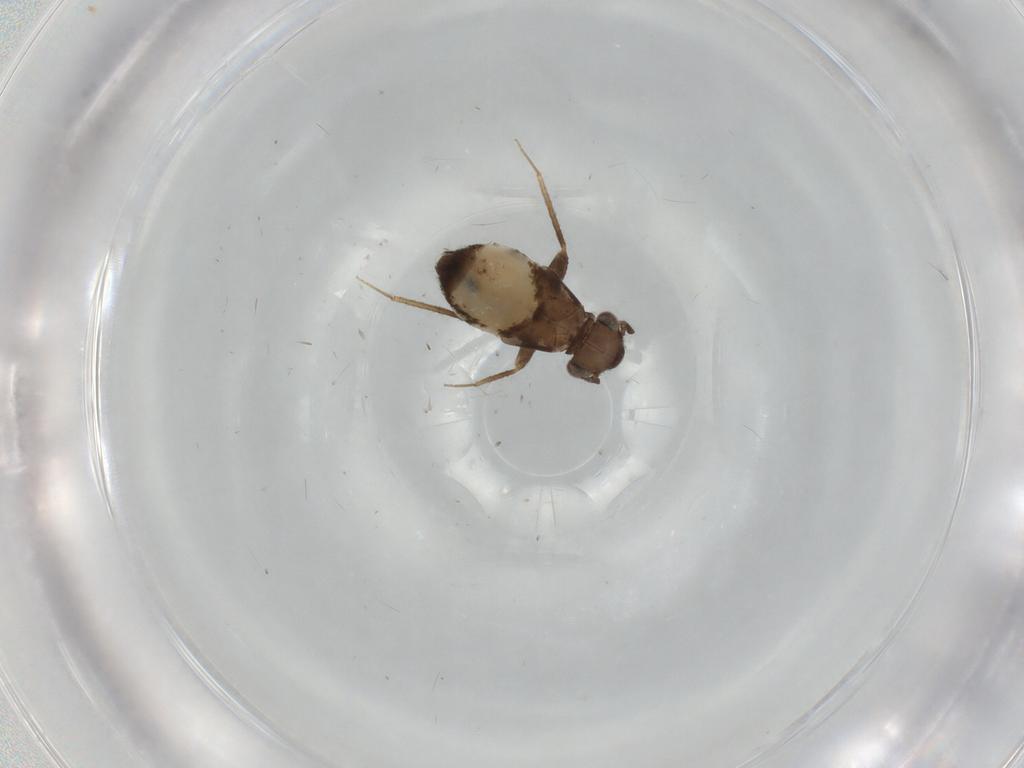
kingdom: Animalia
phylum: Arthropoda
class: Insecta
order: Psocodea
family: Lepidopsocidae
